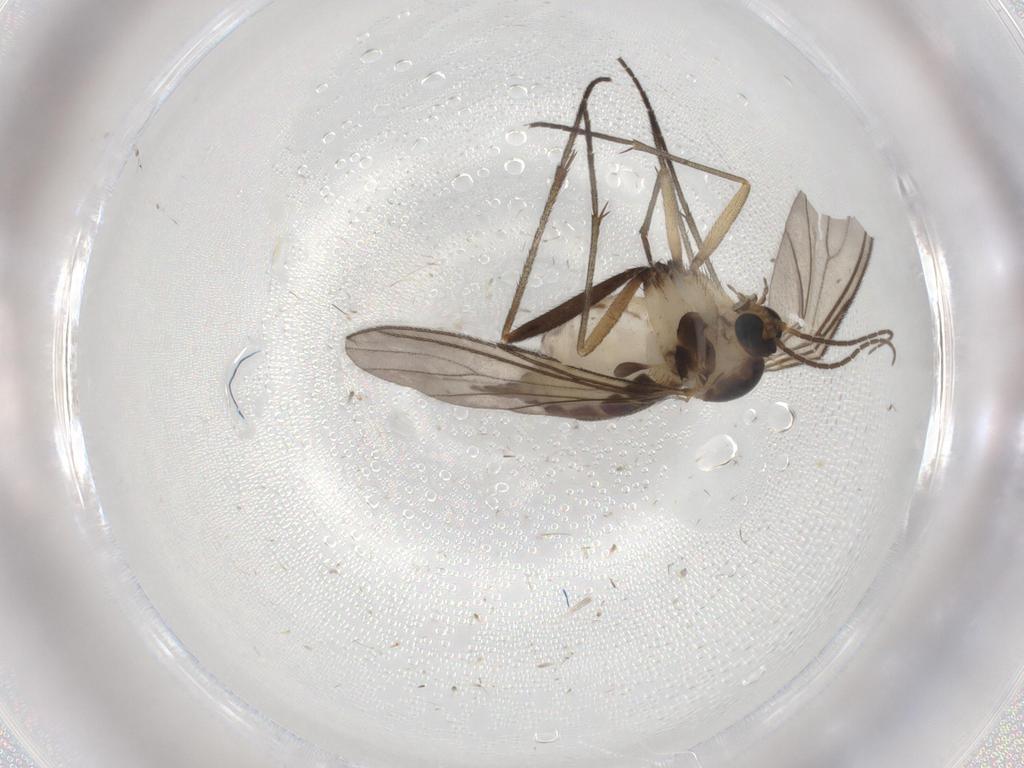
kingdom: Animalia
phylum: Arthropoda
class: Insecta
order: Diptera
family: Sciaridae
